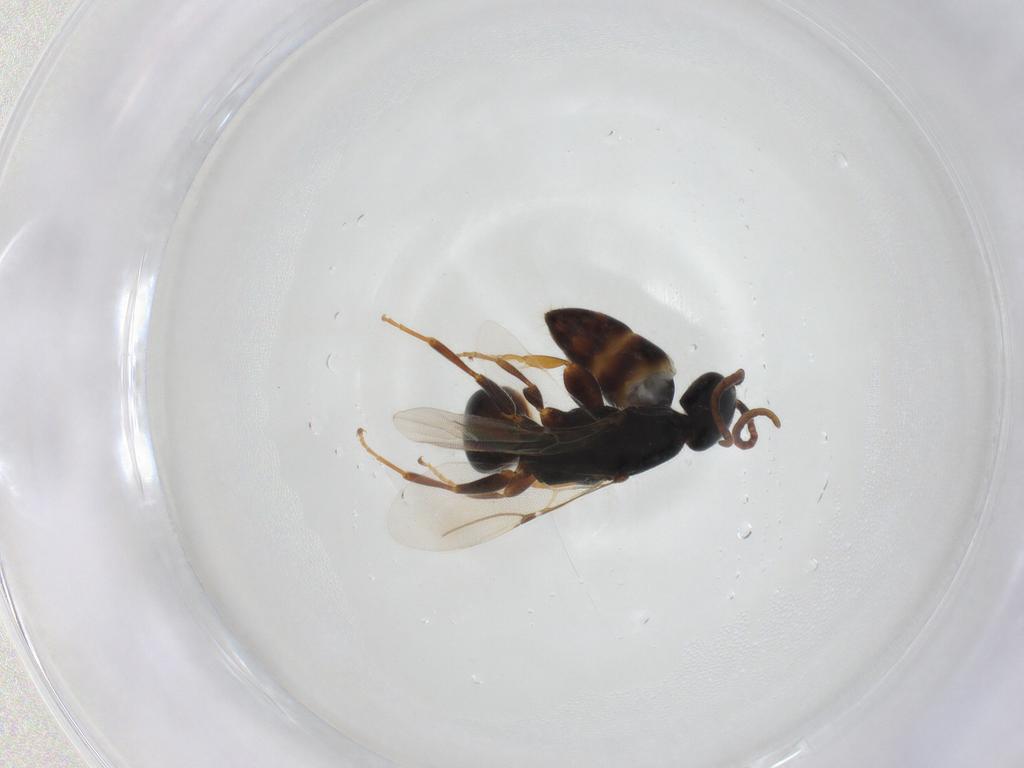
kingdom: Animalia
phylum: Arthropoda
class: Insecta
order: Hymenoptera
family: Bethylidae
